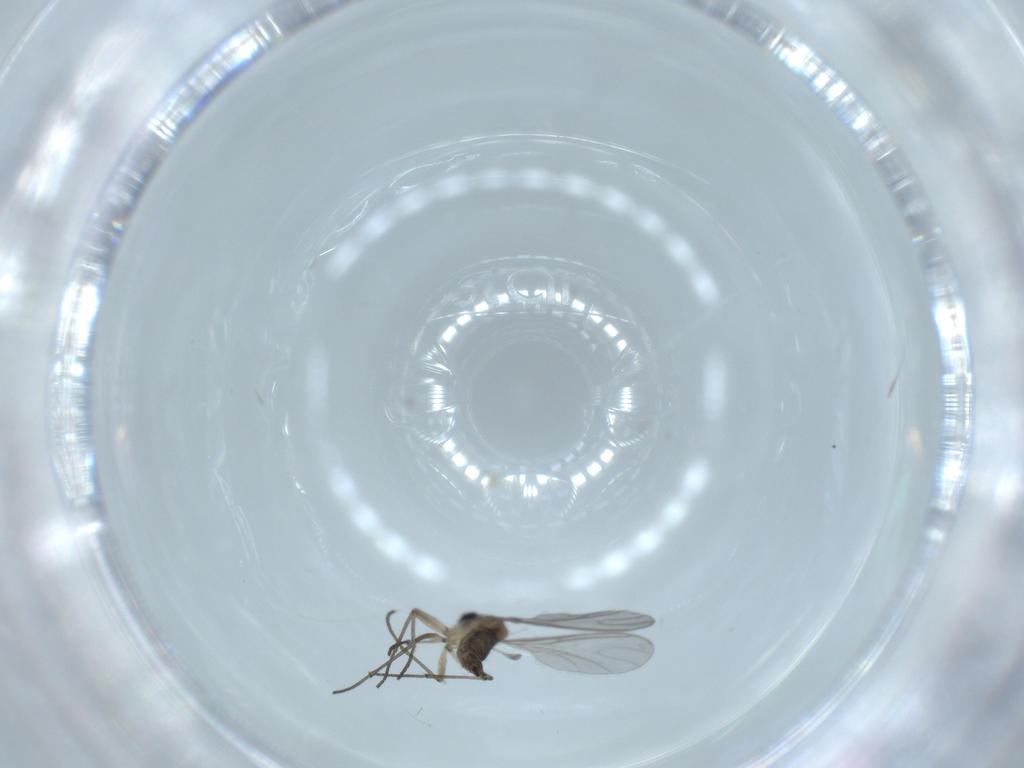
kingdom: Animalia
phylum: Arthropoda
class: Insecta
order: Diptera
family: Sciaridae
